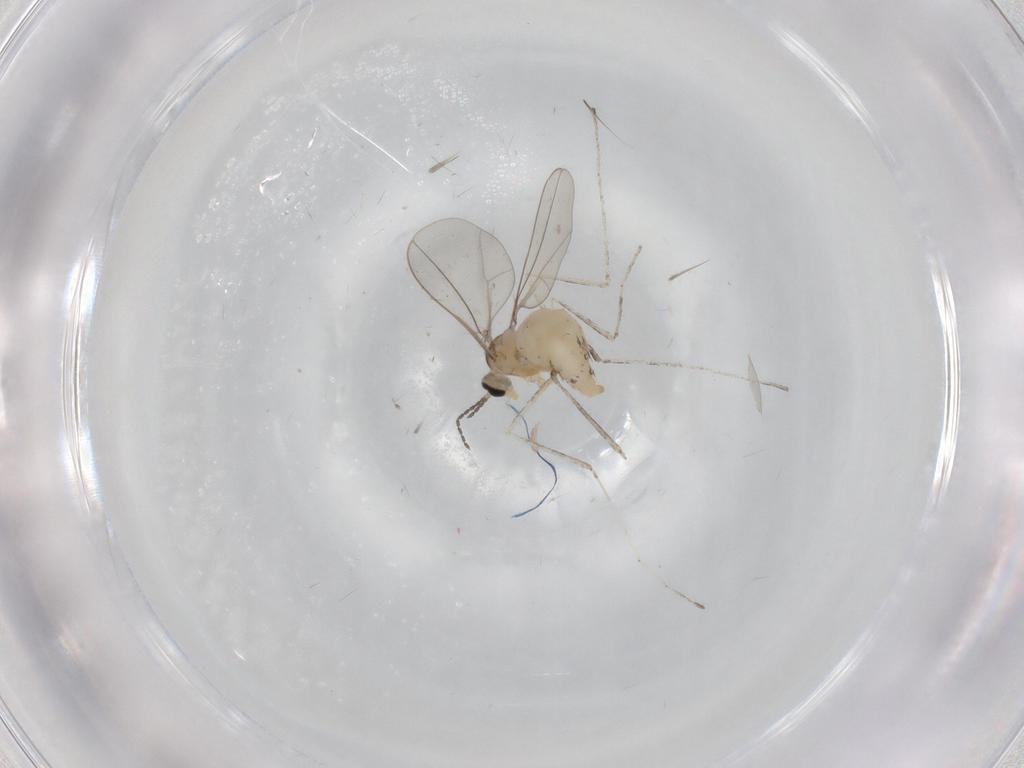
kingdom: Animalia
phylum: Arthropoda
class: Insecta
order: Diptera
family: Cecidomyiidae
